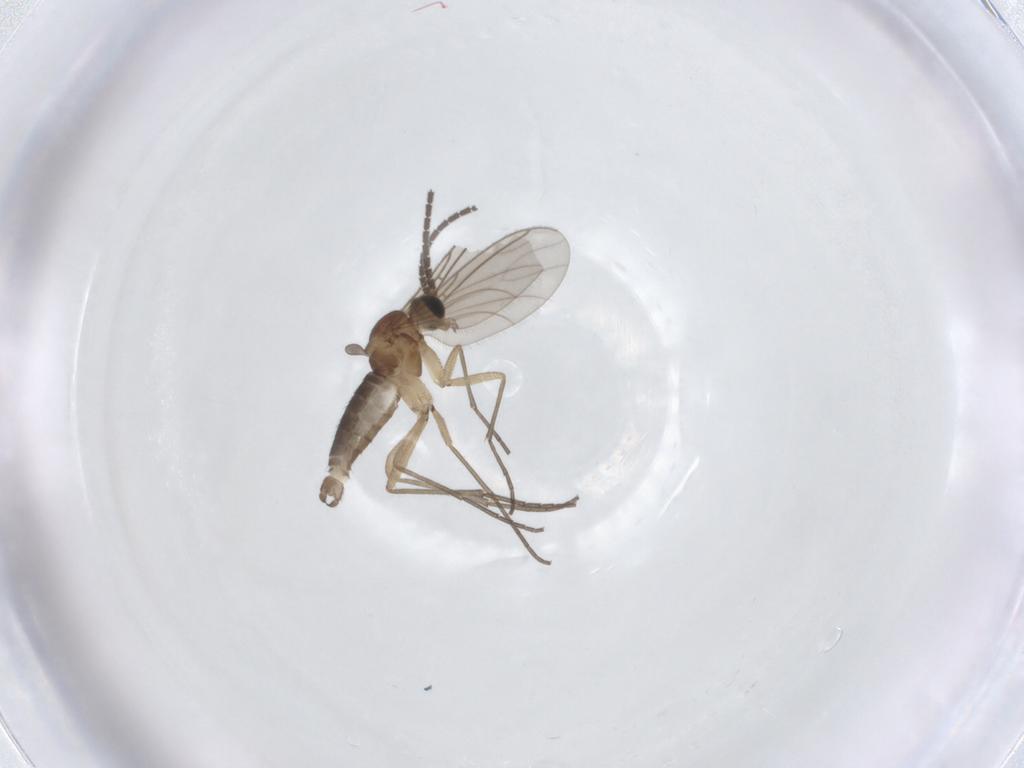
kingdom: Animalia
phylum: Arthropoda
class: Insecta
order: Diptera
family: Sciaridae
